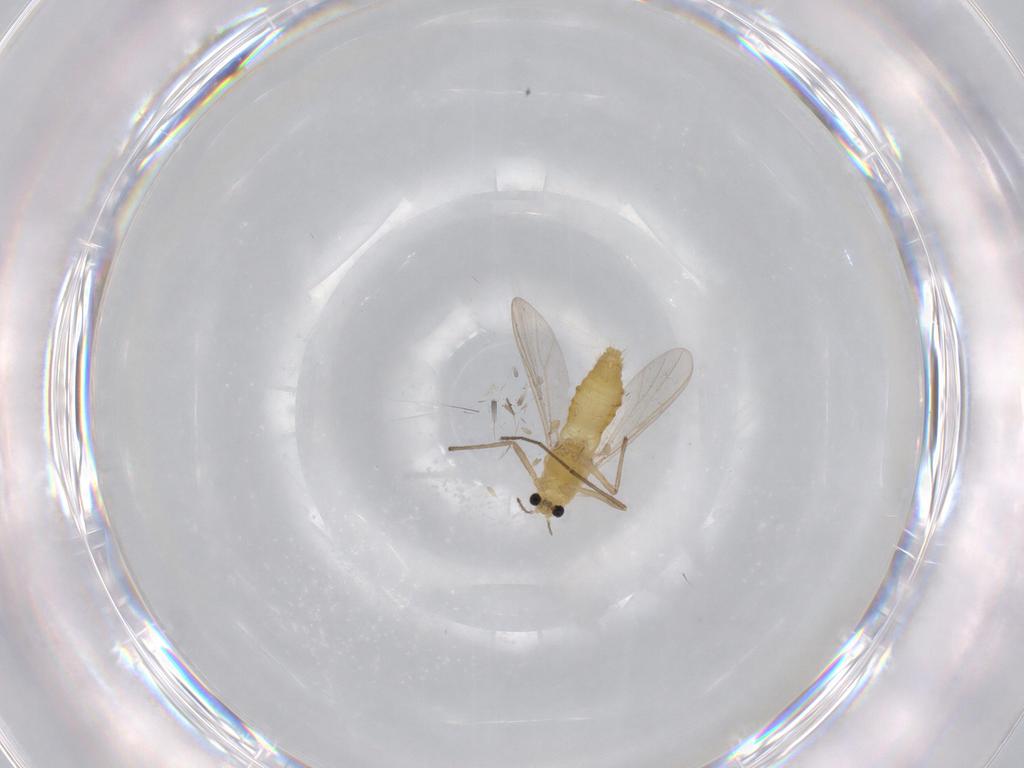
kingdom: Animalia
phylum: Arthropoda
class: Insecta
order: Diptera
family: Chironomidae
